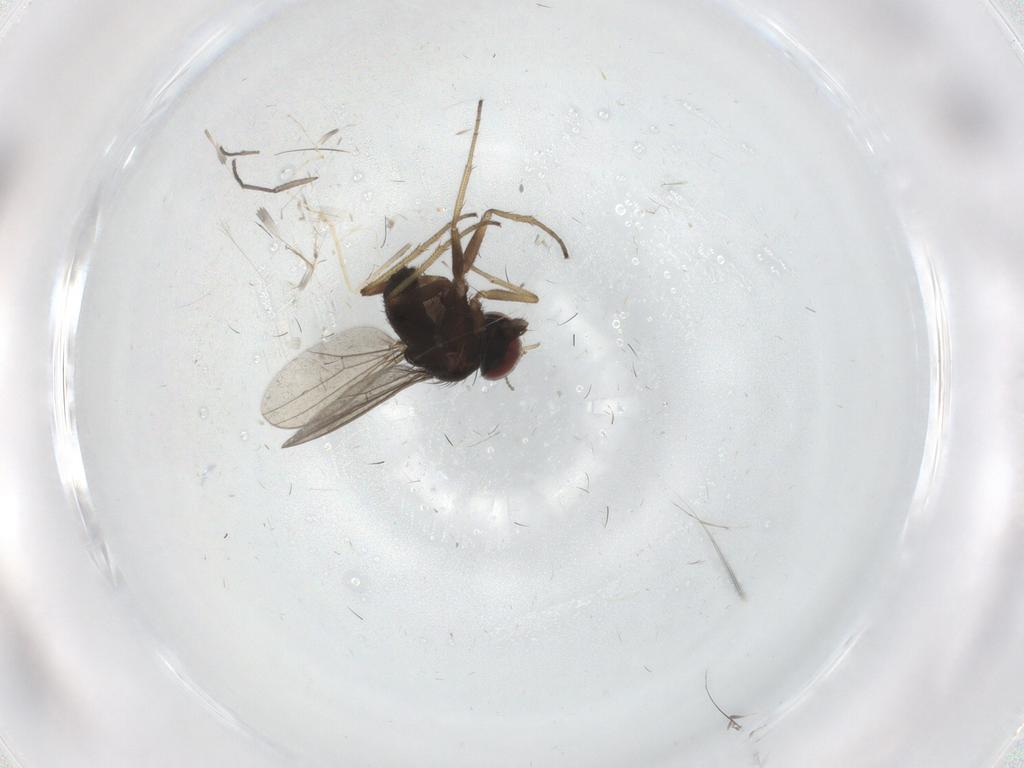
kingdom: Animalia
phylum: Arthropoda
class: Insecta
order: Diptera
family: Dolichopodidae
